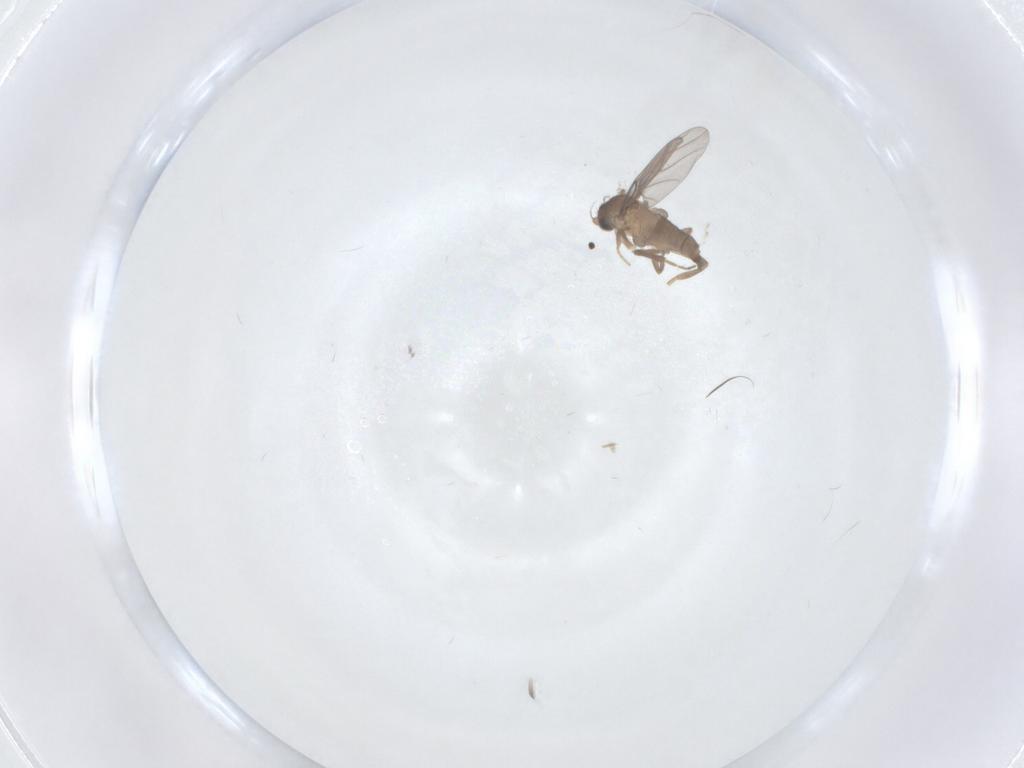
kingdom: Animalia
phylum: Arthropoda
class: Insecta
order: Diptera
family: Psychodidae
